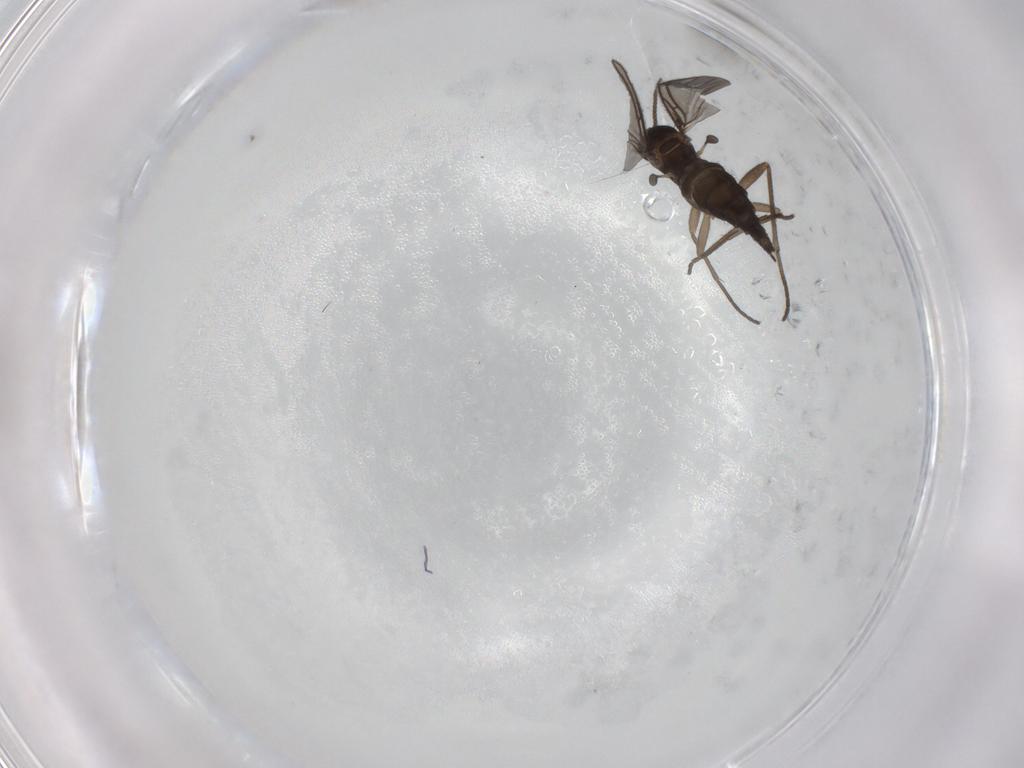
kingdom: Animalia
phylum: Arthropoda
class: Insecta
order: Diptera
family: Sciaridae
